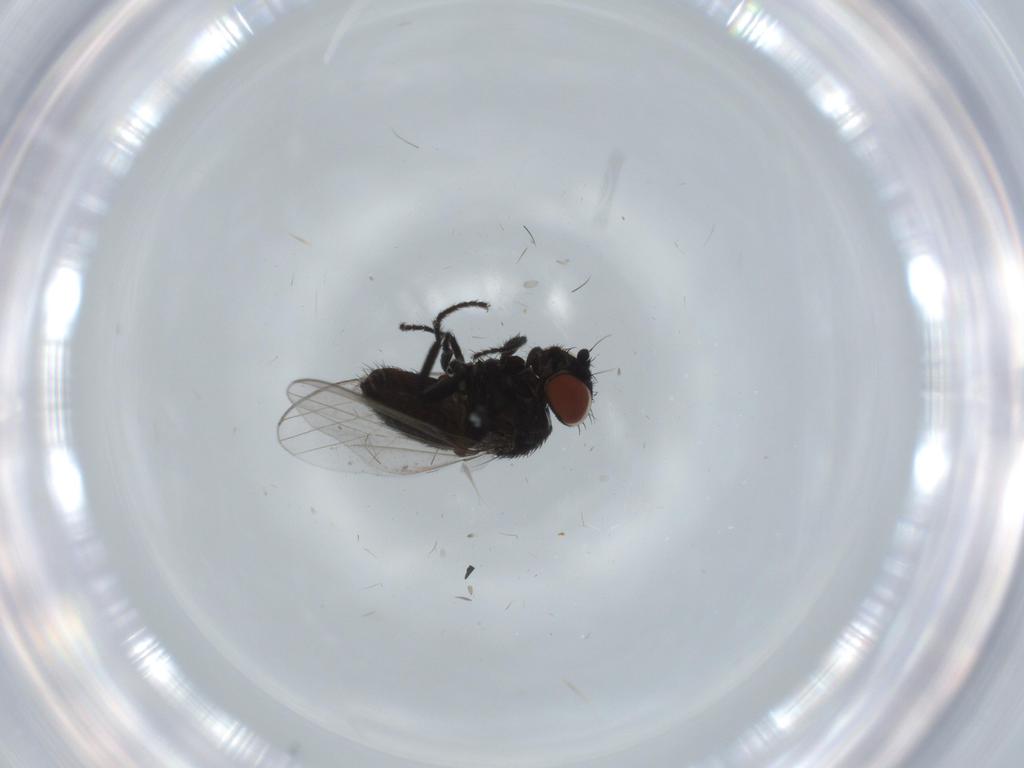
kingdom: Animalia
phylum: Arthropoda
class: Insecta
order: Diptera
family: Milichiidae
